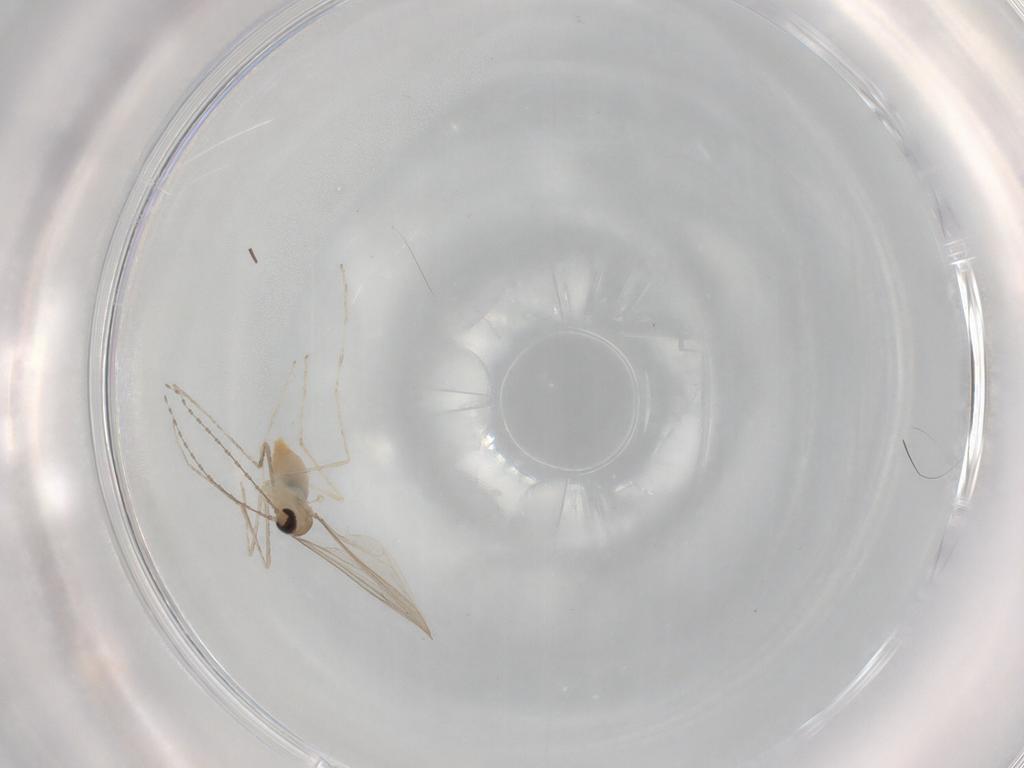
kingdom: Animalia
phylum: Arthropoda
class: Insecta
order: Diptera
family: Cecidomyiidae
